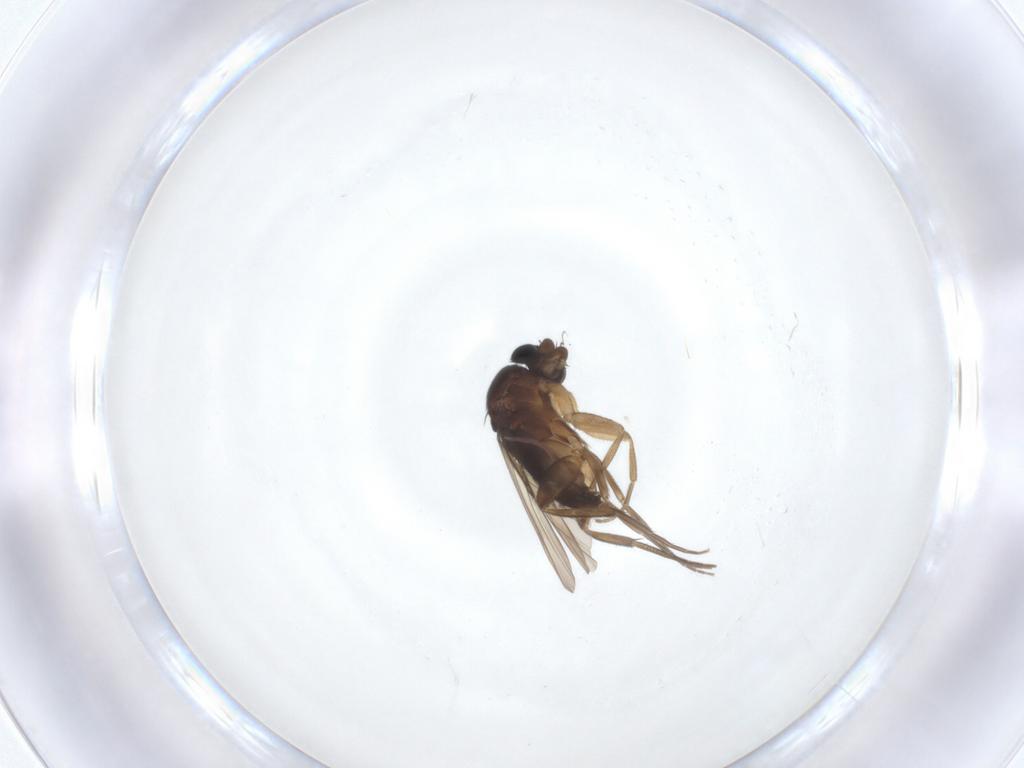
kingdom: Animalia
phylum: Arthropoda
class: Insecta
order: Diptera
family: Phoridae
